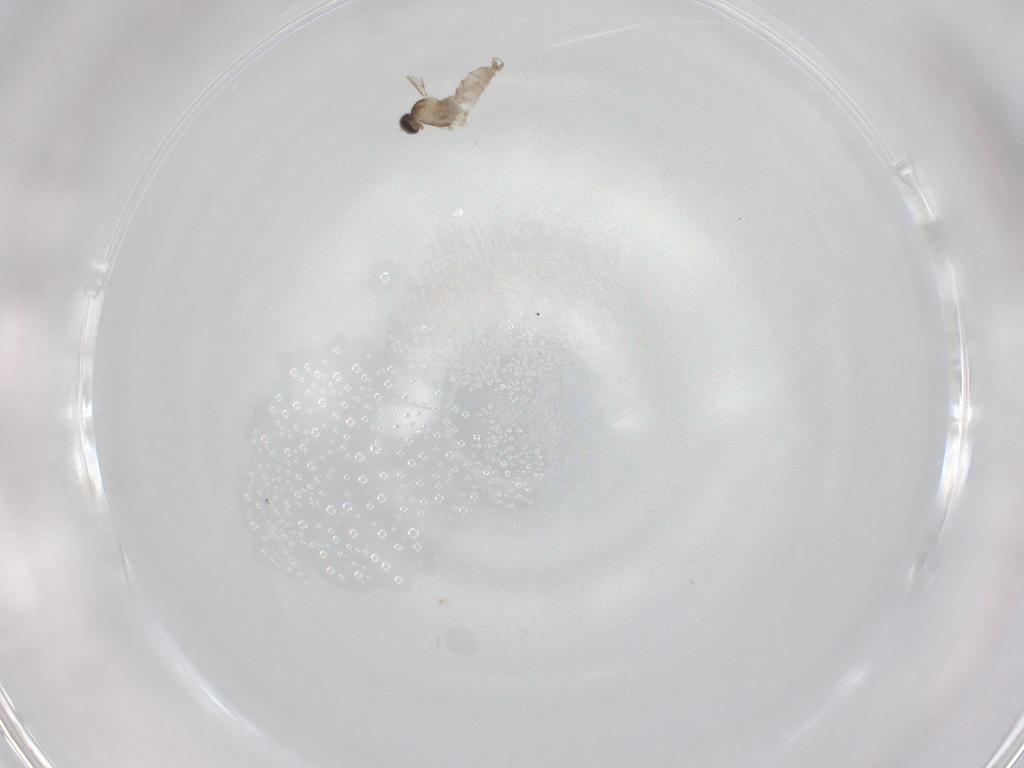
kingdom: Animalia
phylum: Arthropoda
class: Insecta
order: Diptera
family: Cecidomyiidae
